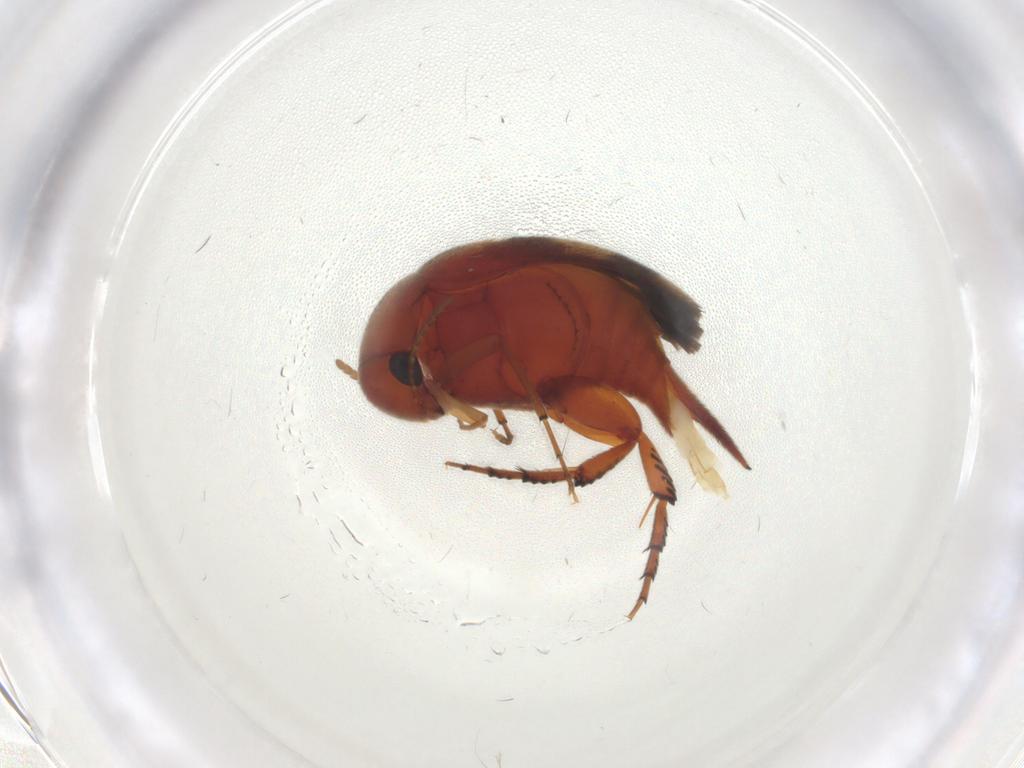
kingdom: Animalia
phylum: Arthropoda
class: Insecta
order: Coleoptera
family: Mordellidae
